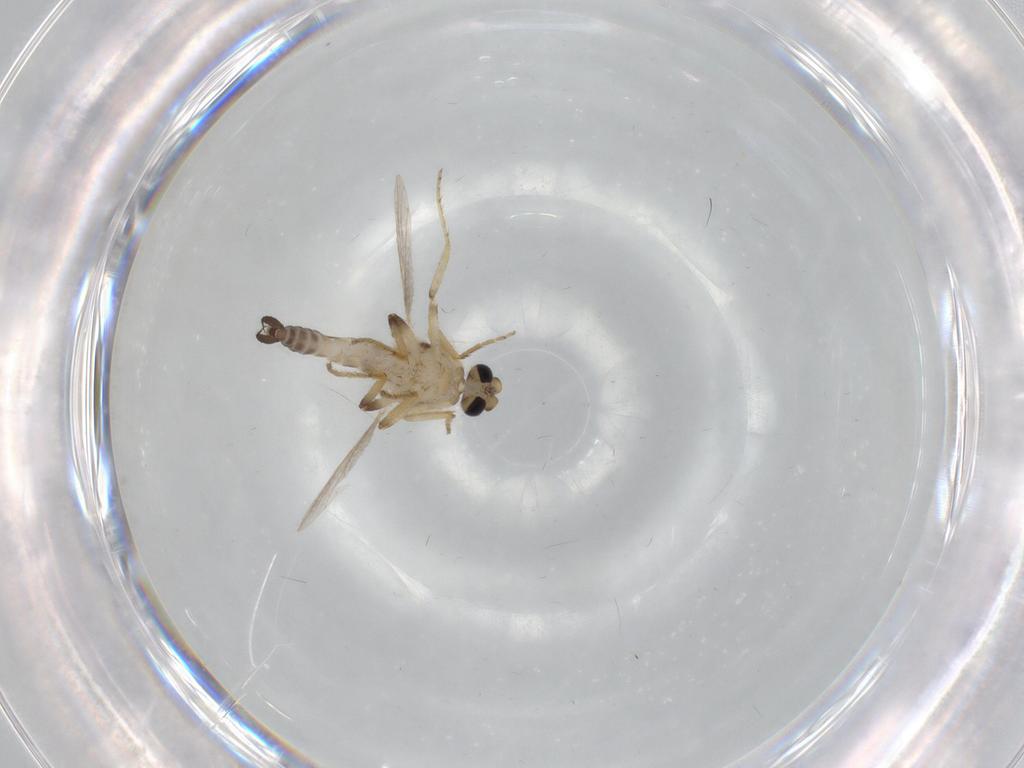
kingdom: Animalia
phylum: Arthropoda
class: Insecta
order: Diptera
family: Ceratopogonidae
